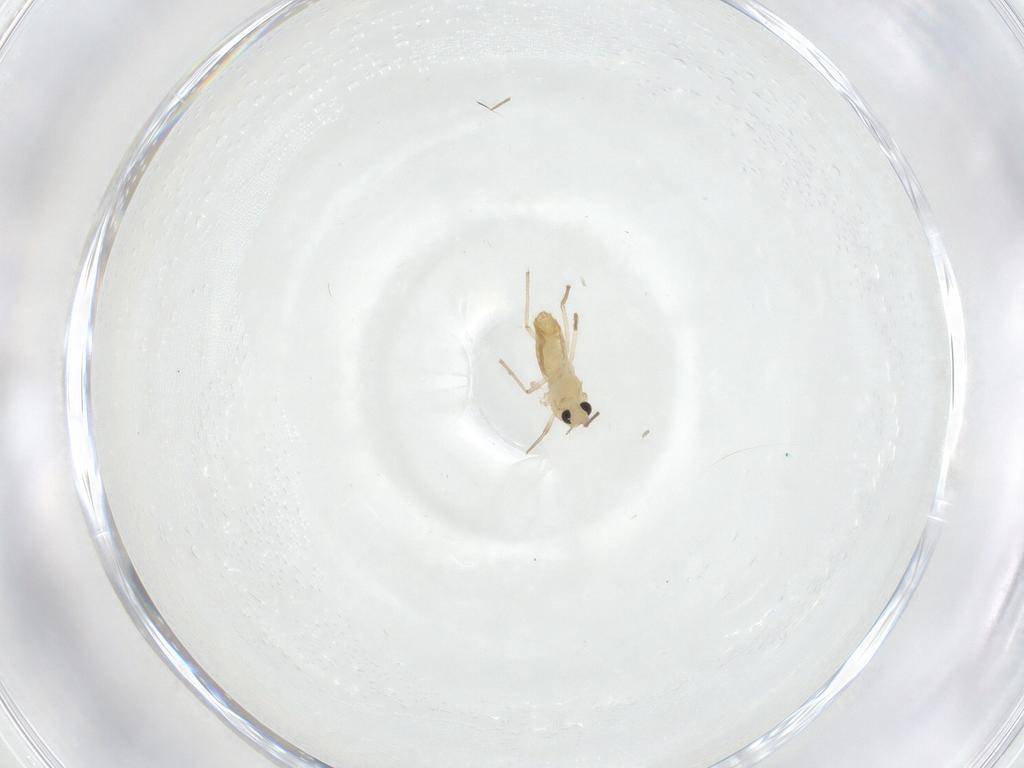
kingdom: Animalia
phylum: Arthropoda
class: Insecta
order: Diptera
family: Chironomidae
